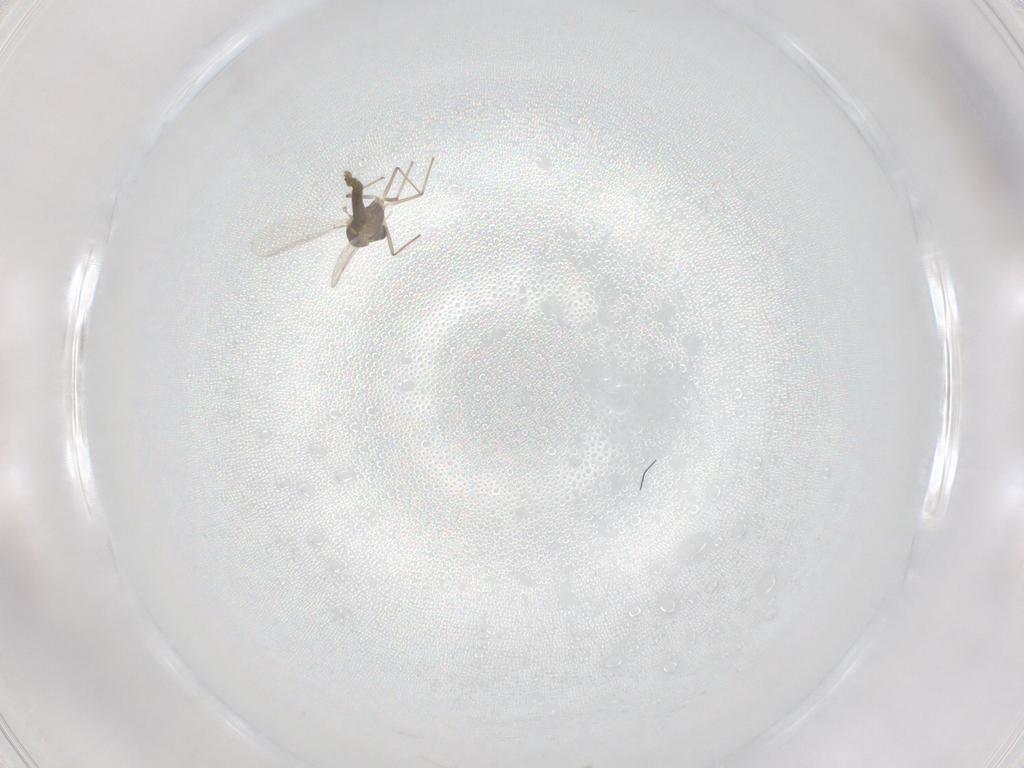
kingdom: Animalia
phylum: Arthropoda
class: Insecta
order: Diptera
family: Chironomidae
